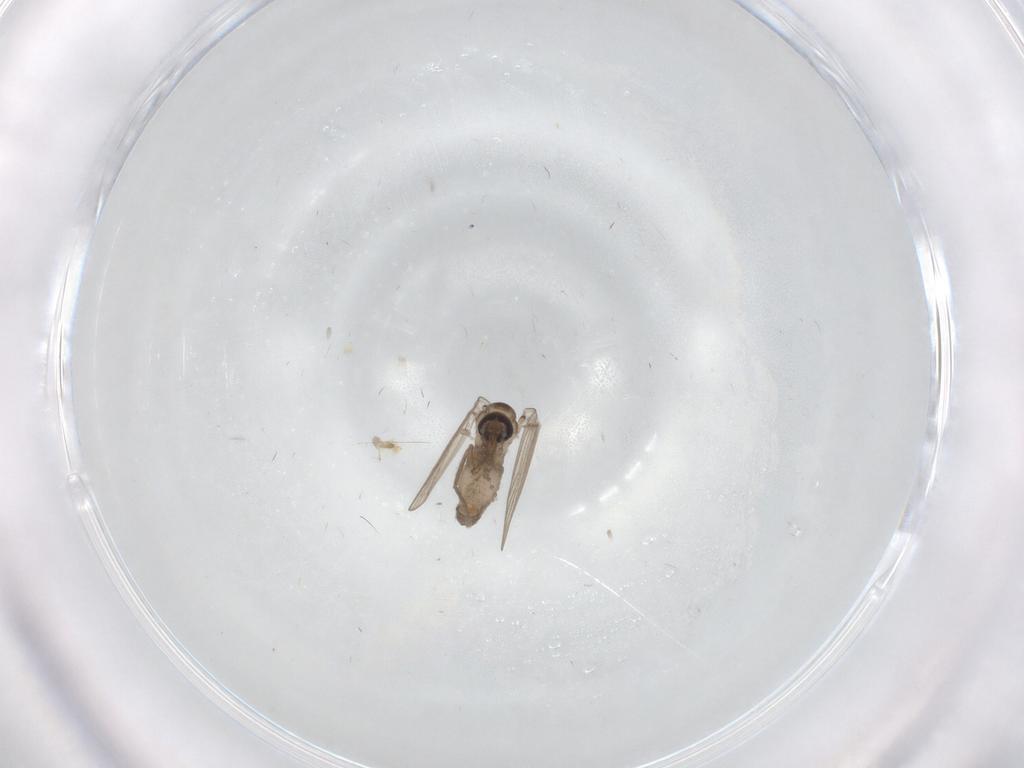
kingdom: Animalia
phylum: Arthropoda
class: Insecta
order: Diptera
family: Psychodidae
